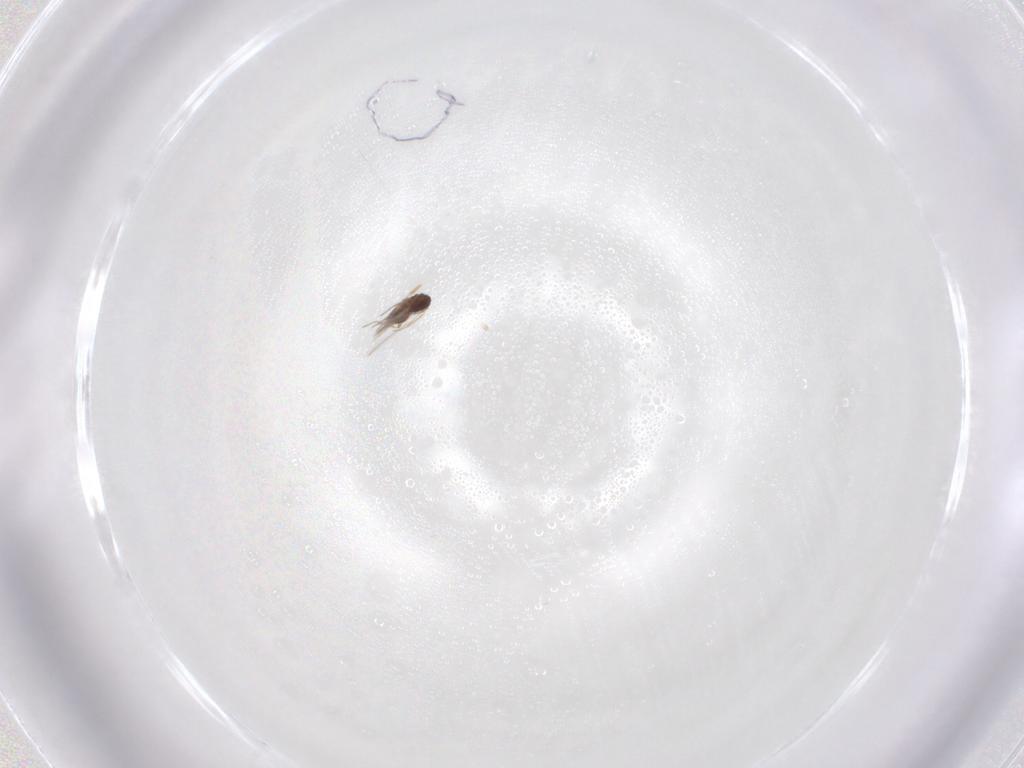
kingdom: Animalia
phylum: Arthropoda
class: Insecta
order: Hymenoptera
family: Mymaridae
